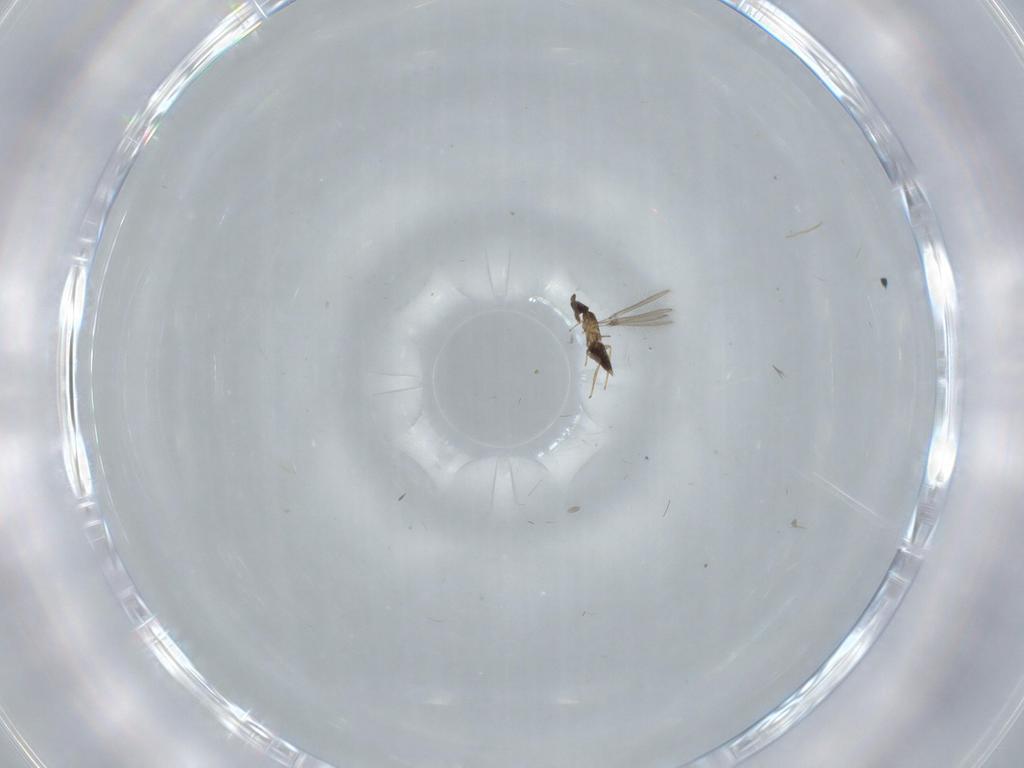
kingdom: Animalia
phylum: Arthropoda
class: Insecta
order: Hymenoptera
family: Mymaridae
